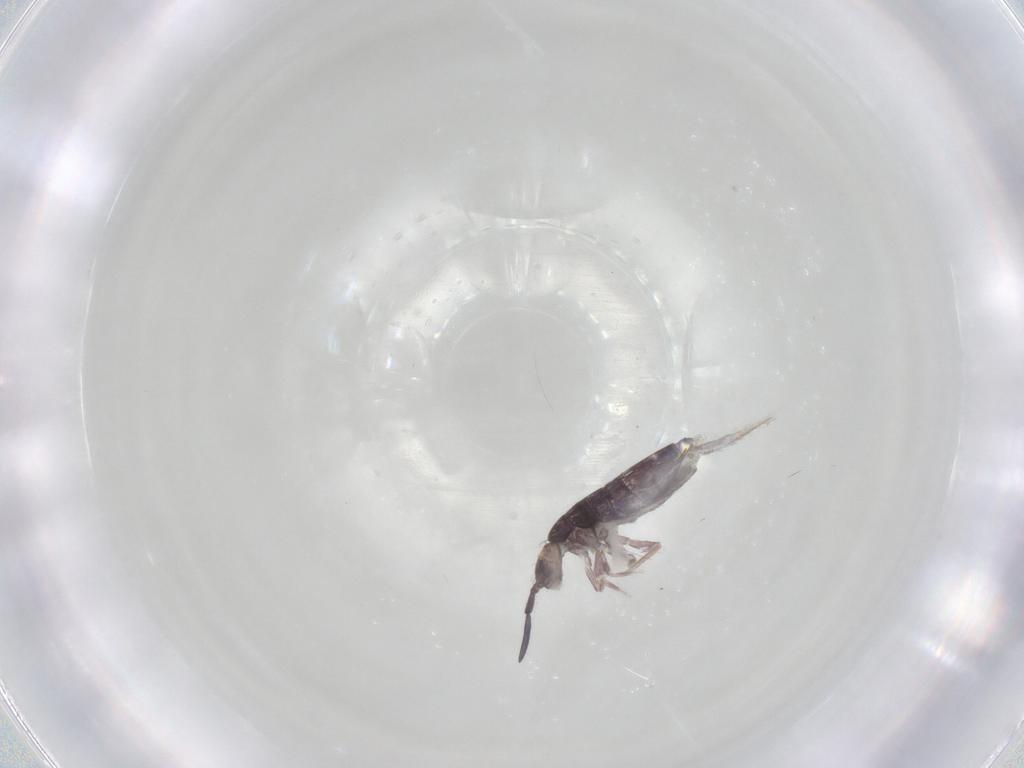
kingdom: Animalia
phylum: Arthropoda
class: Collembola
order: Entomobryomorpha
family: Entomobryidae
